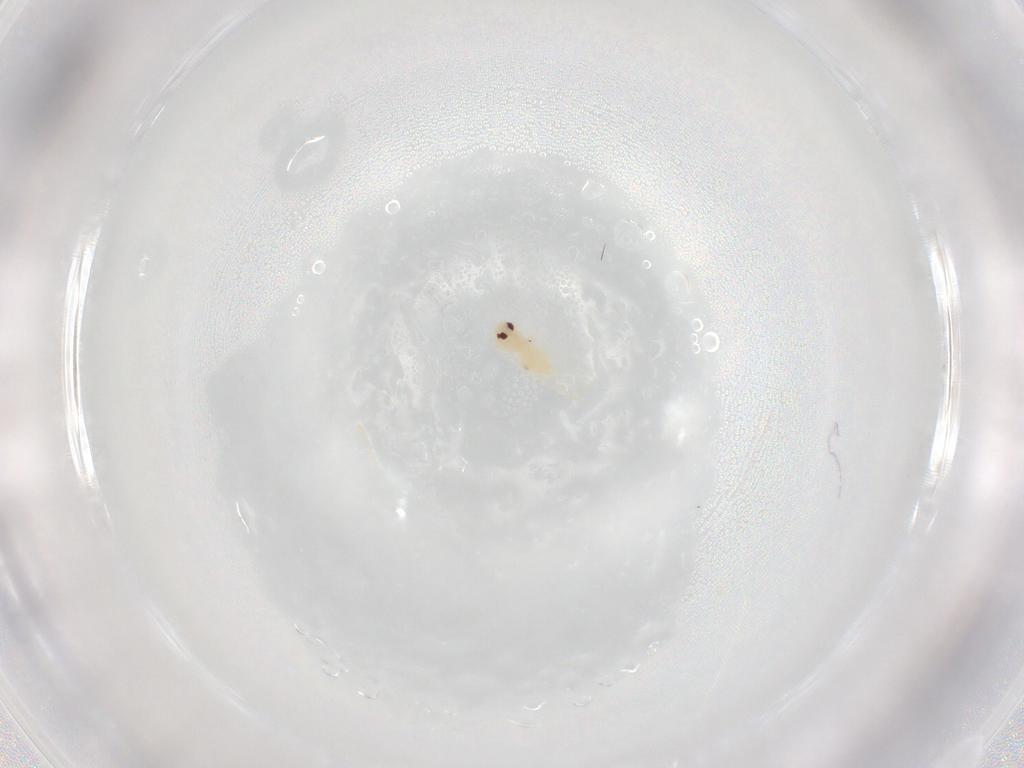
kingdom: Animalia
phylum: Arthropoda
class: Insecta
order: Hemiptera
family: Aleyrodidae
